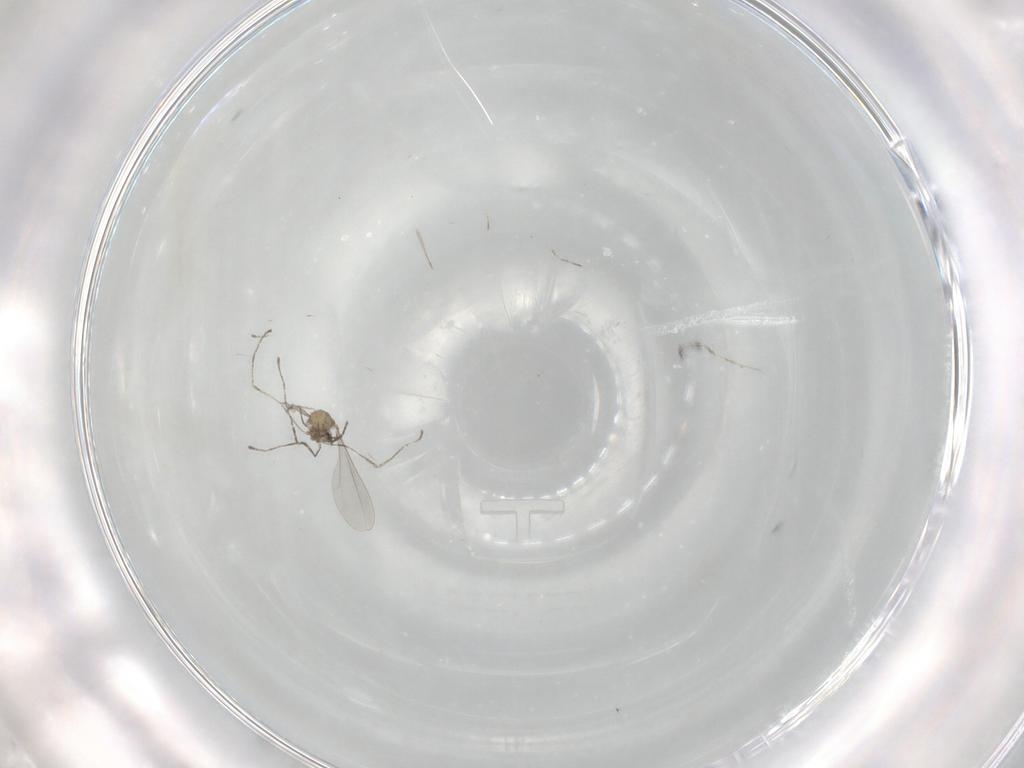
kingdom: Animalia
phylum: Arthropoda
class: Insecta
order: Diptera
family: Cecidomyiidae
